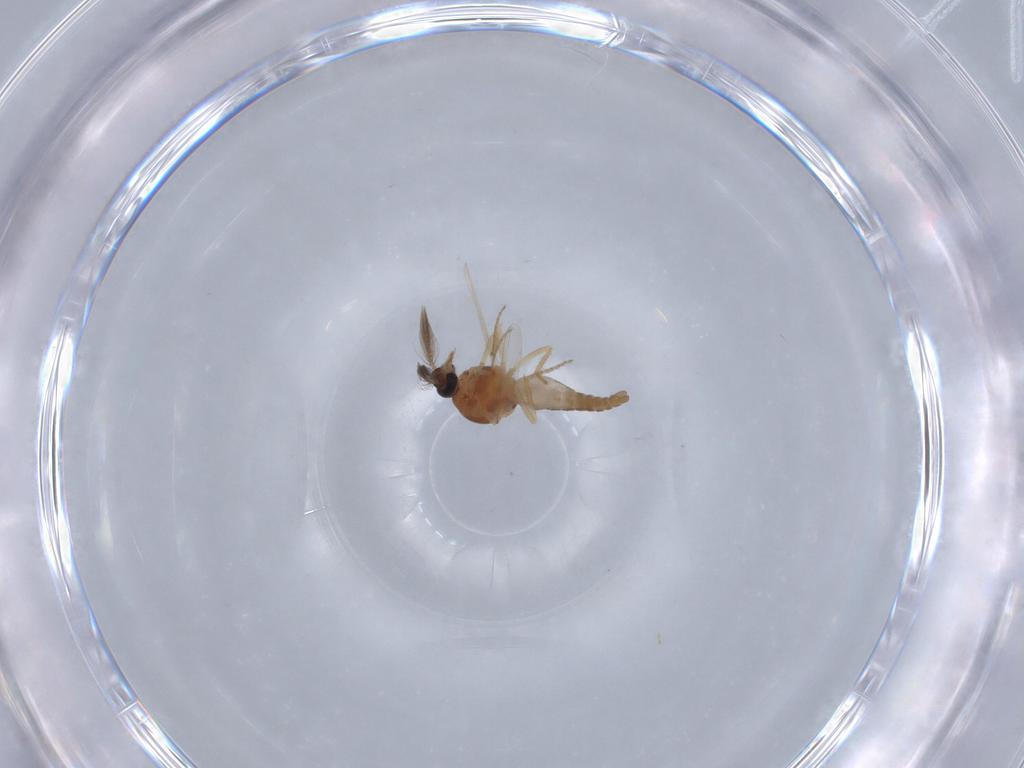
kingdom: Animalia
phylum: Arthropoda
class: Insecta
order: Diptera
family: Ceratopogonidae
